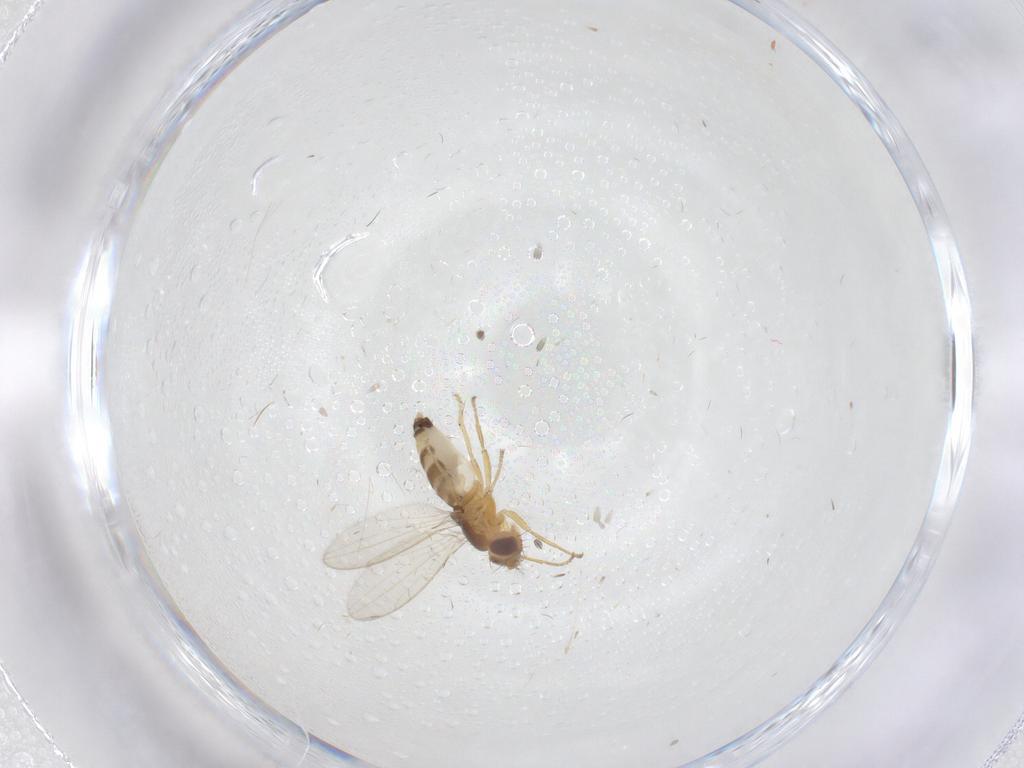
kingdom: Animalia
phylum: Arthropoda
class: Insecta
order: Diptera
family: Periscelididae
